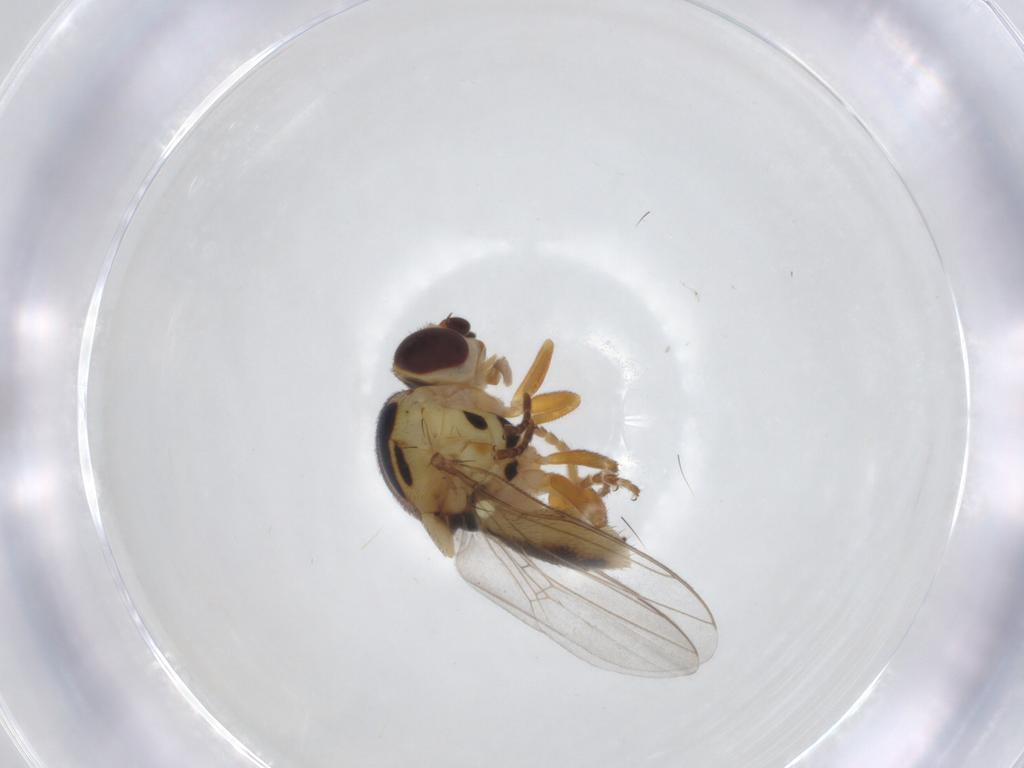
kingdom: Animalia
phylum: Arthropoda
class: Insecta
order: Diptera
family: Chloropidae
